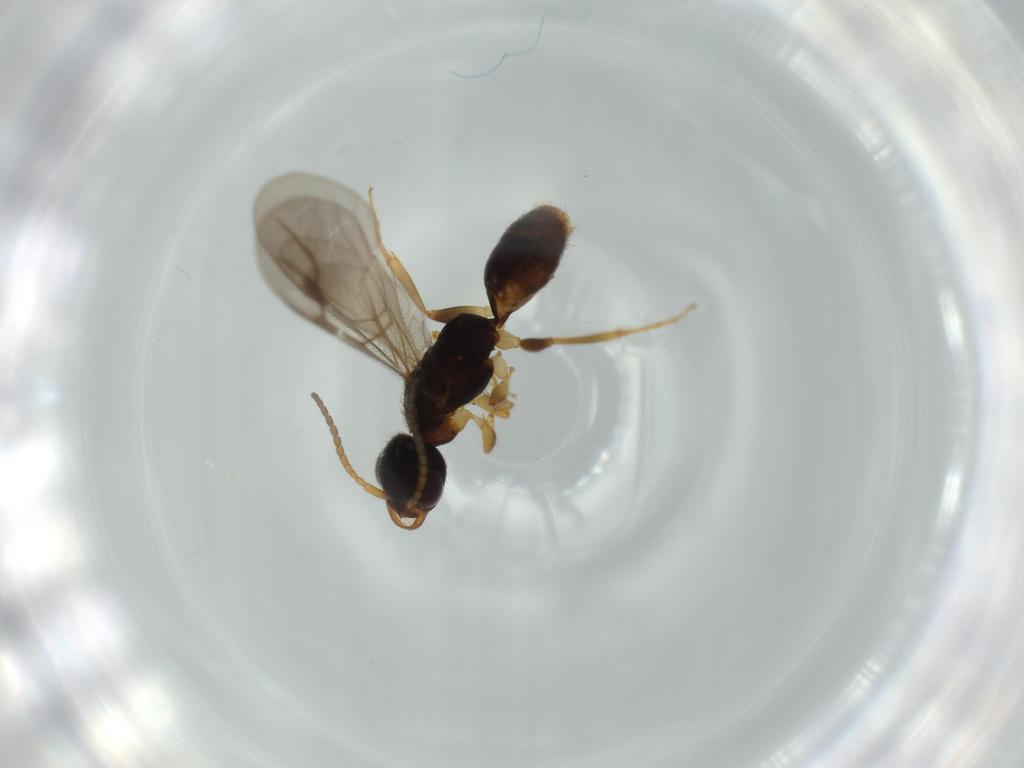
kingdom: Animalia
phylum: Arthropoda
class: Insecta
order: Hymenoptera
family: Bethylidae
